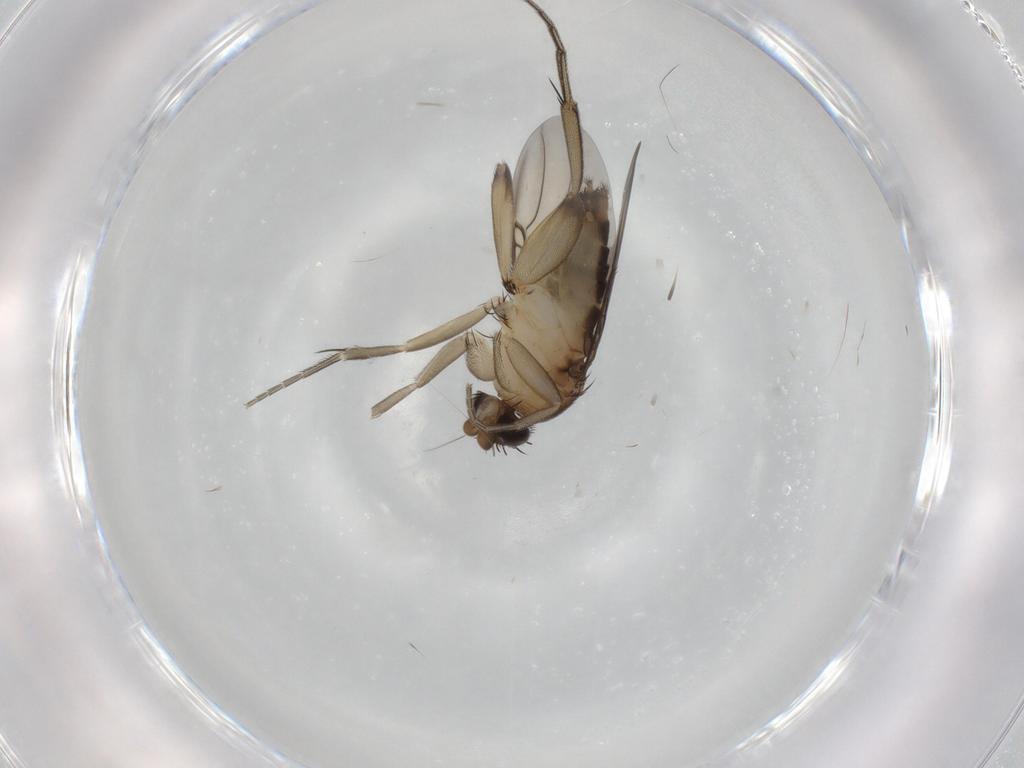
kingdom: Animalia
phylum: Arthropoda
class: Insecta
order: Diptera
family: Phoridae
